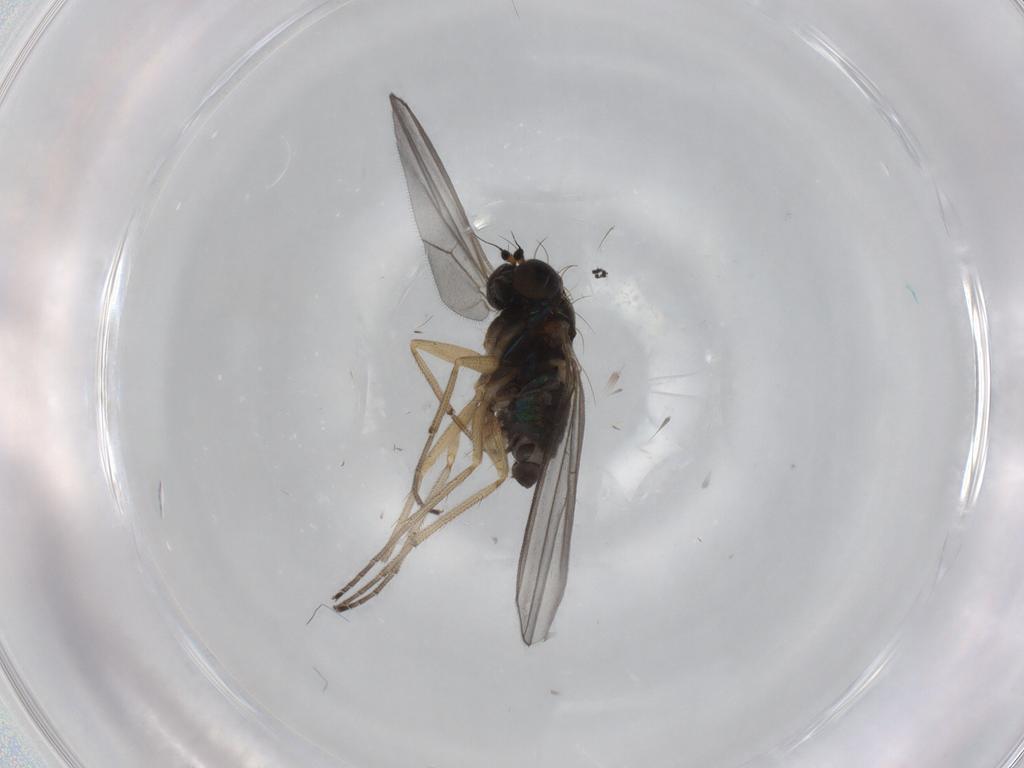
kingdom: Animalia
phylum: Arthropoda
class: Insecta
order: Diptera
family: Dolichopodidae
